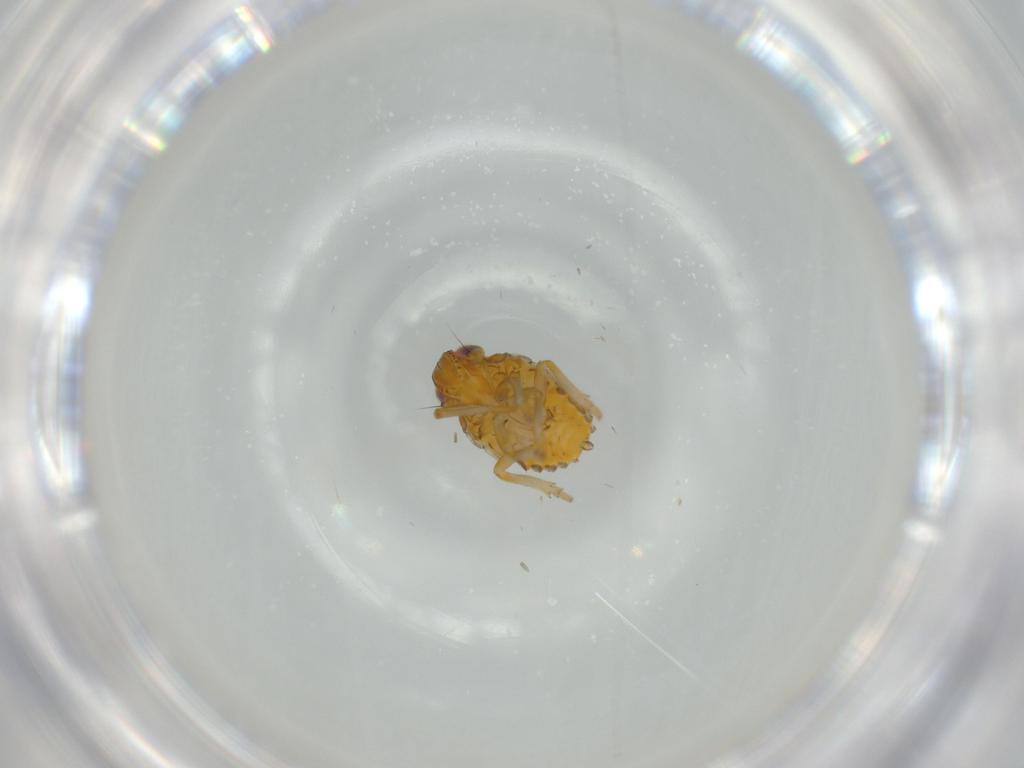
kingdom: Animalia
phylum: Arthropoda
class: Insecta
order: Hemiptera
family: Issidae
